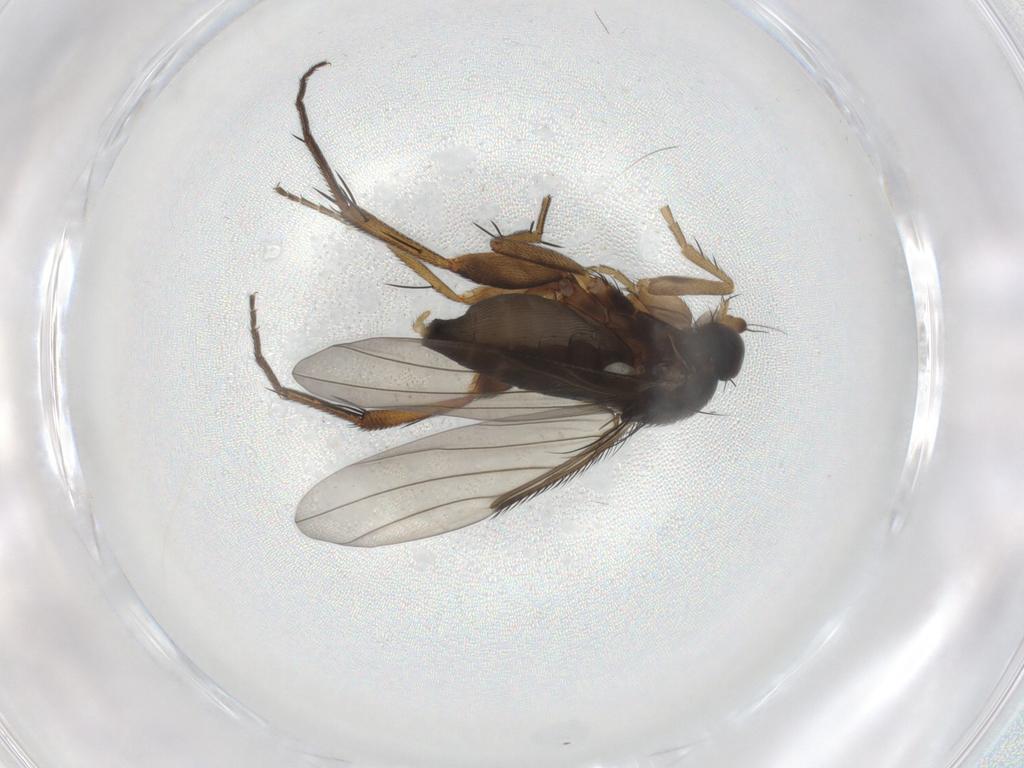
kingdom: Animalia
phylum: Arthropoda
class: Insecta
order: Diptera
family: Phoridae
